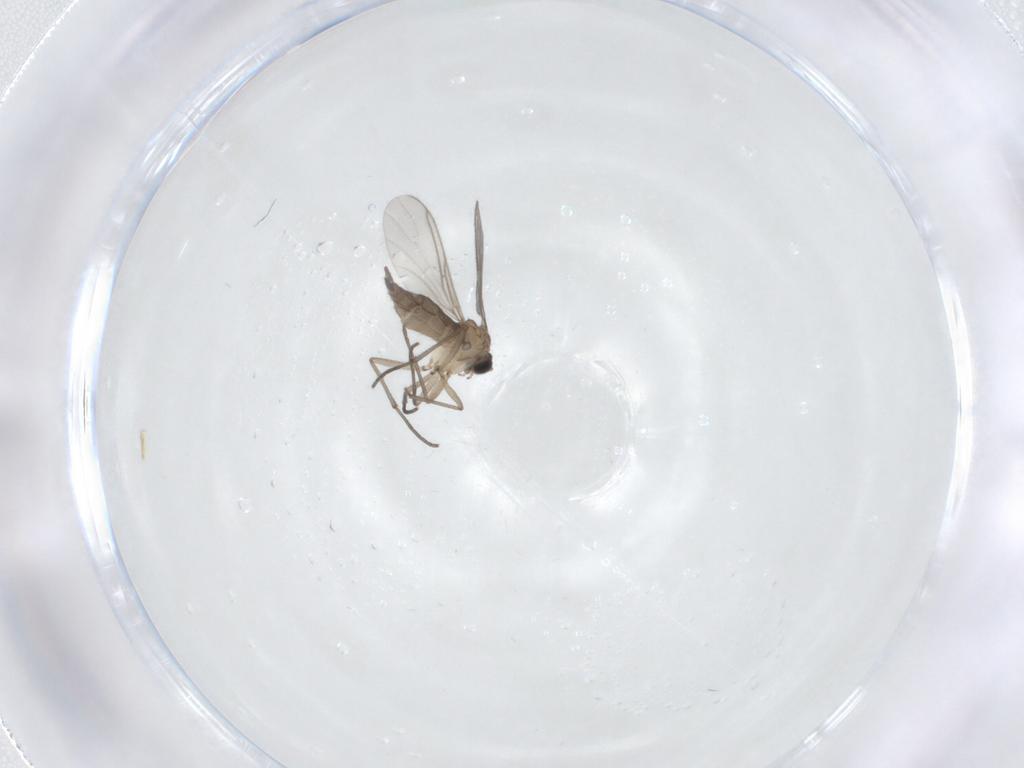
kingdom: Animalia
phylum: Arthropoda
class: Insecta
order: Diptera
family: Sciaridae
